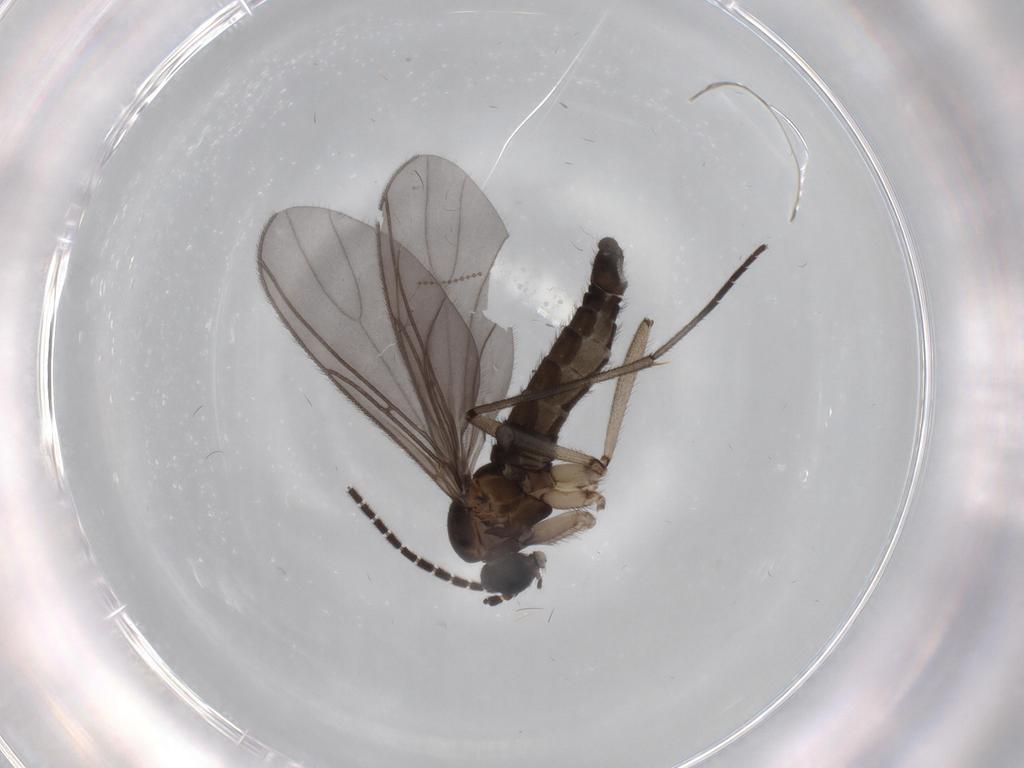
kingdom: Animalia
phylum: Arthropoda
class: Insecta
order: Diptera
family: Sciaridae
